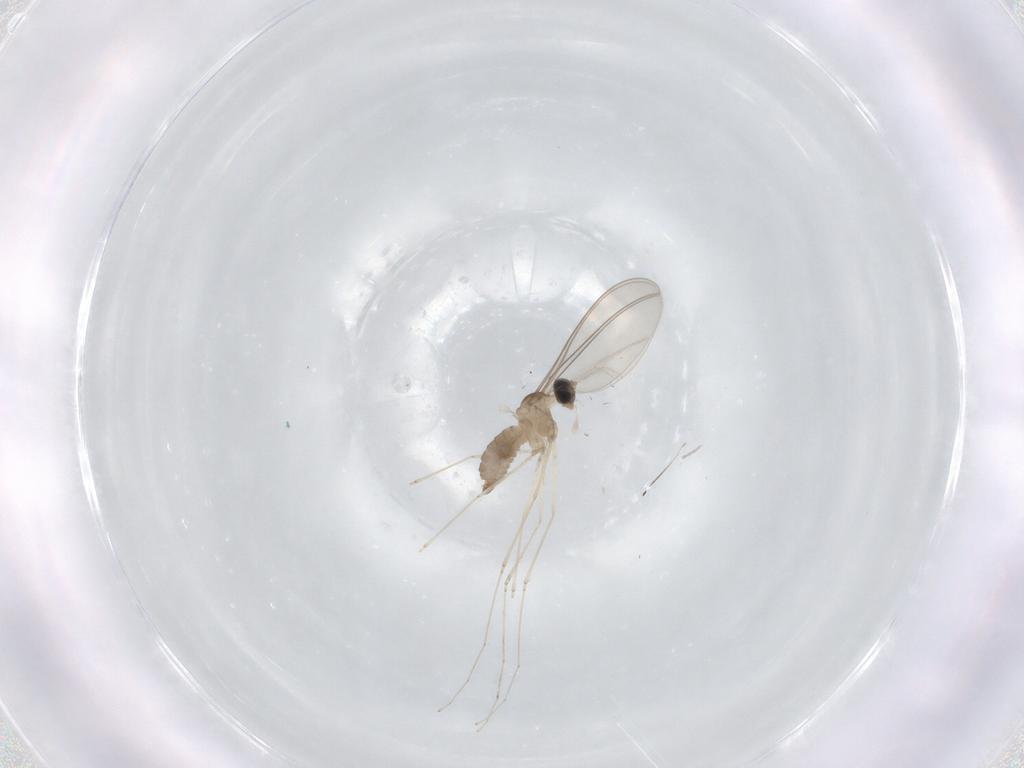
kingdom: Animalia
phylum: Arthropoda
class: Insecta
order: Diptera
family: Cecidomyiidae
